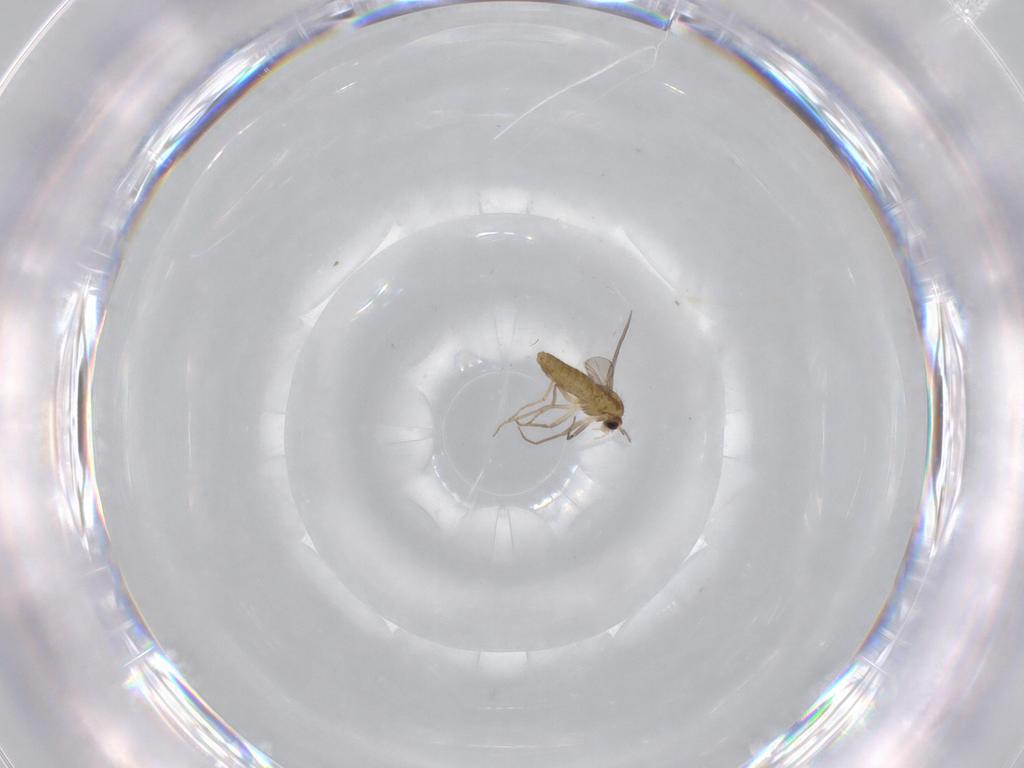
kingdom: Animalia
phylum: Arthropoda
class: Insecta
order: Diptera
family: Chironomidae
